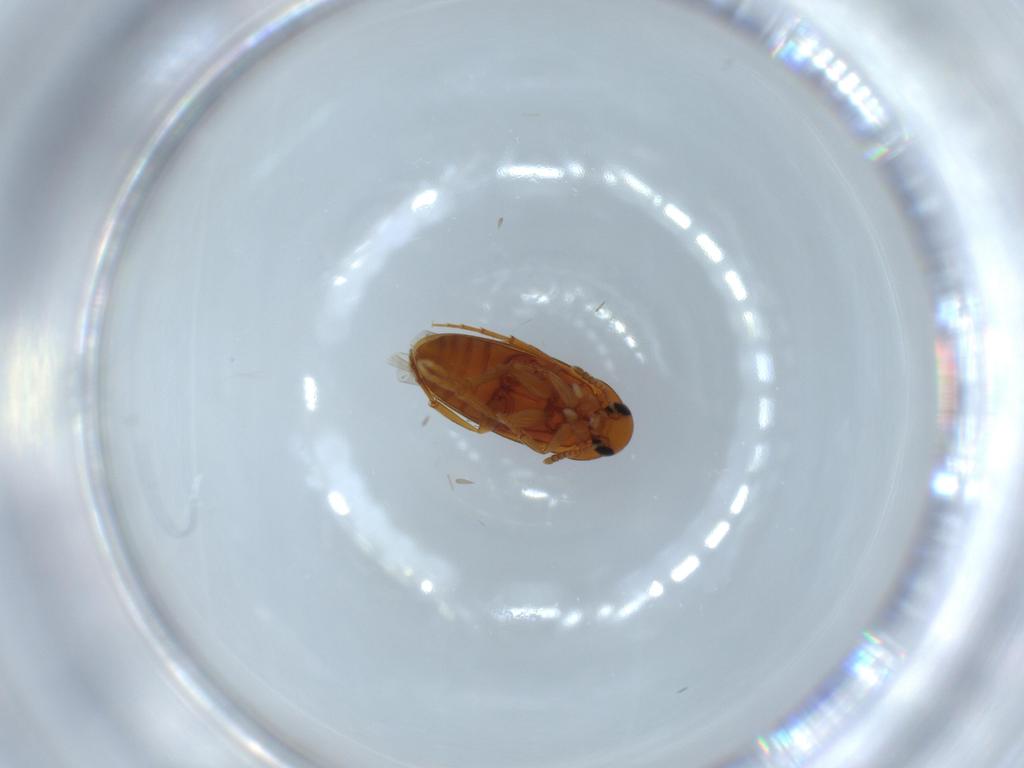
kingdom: Animalia
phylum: Arthropoda
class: Insecta
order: Coleoptera
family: Scraptiidae
